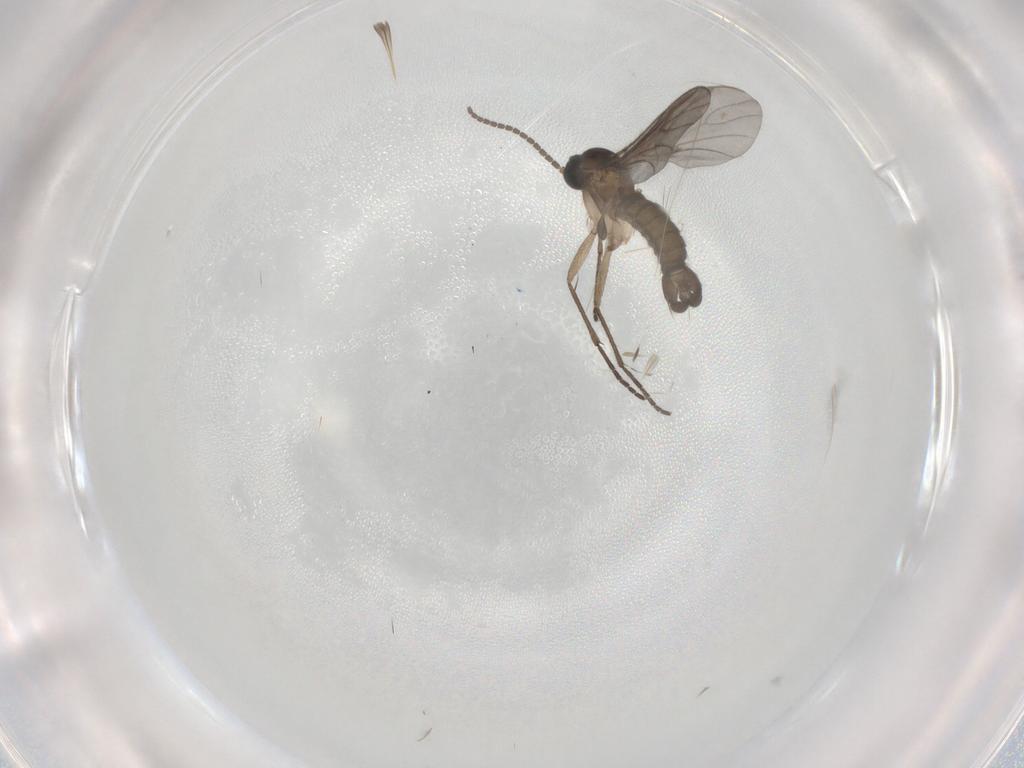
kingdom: Animalia
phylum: Arthropoda
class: Insecta
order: Diptera
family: Sciaridae
